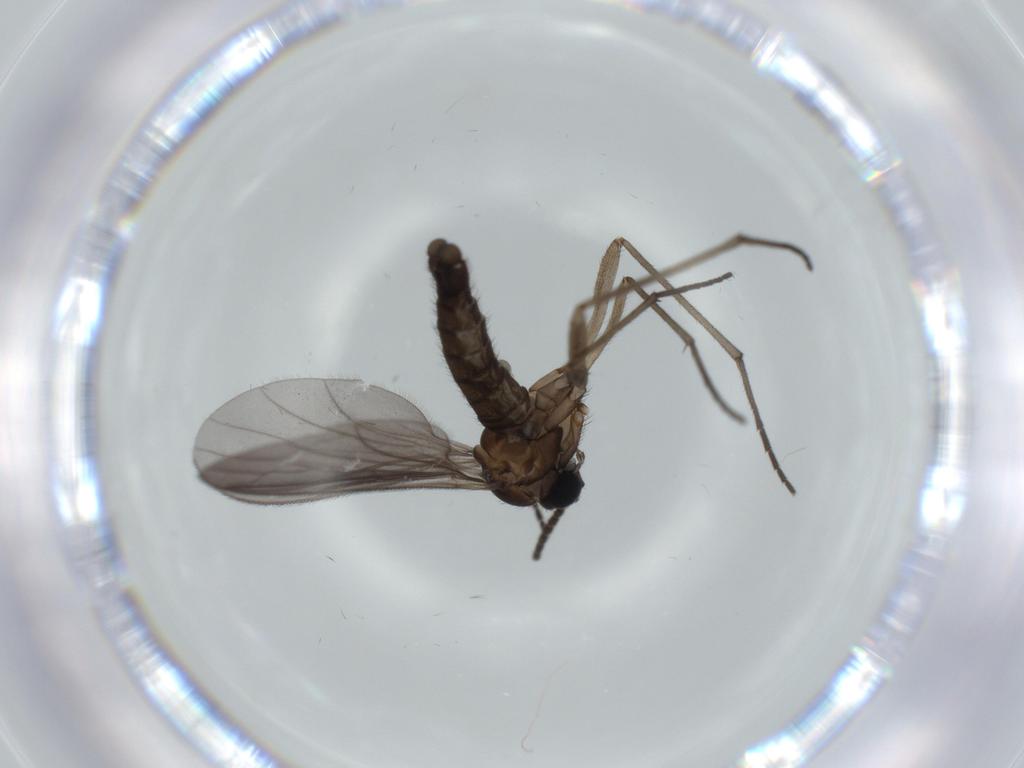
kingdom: Animalia
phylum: Arthropoda
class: Insecta
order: Diptera
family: Sciaridae
